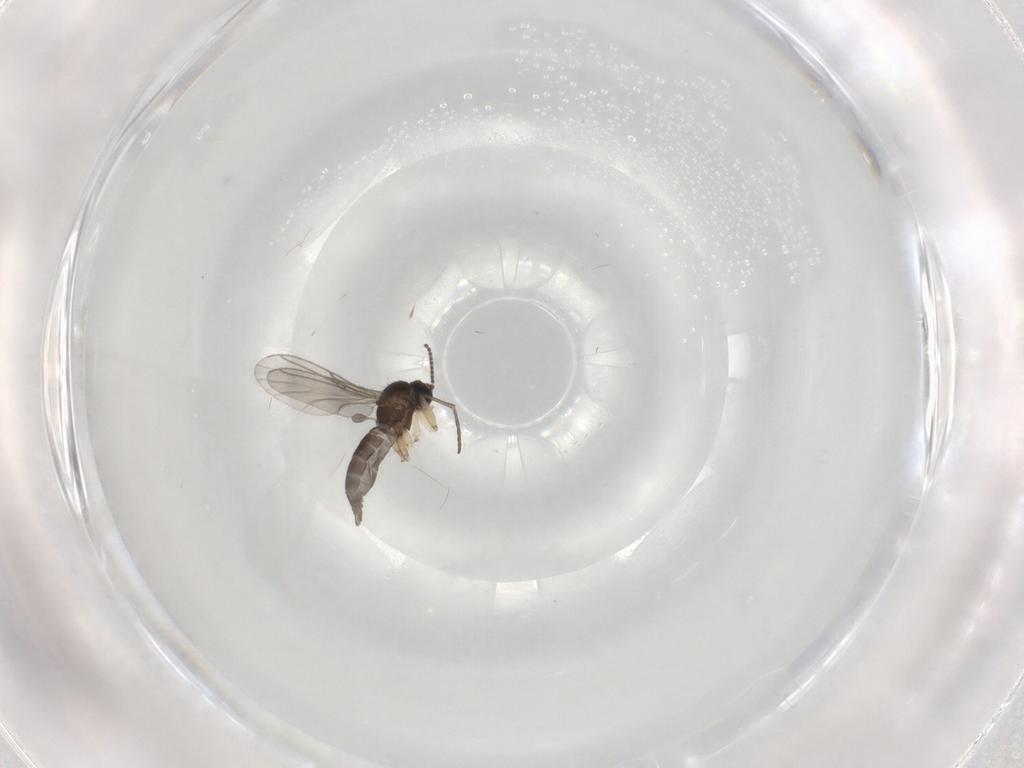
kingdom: Animalia
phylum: Arthropoda
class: Insecta
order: Diptera
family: Sciaridae
